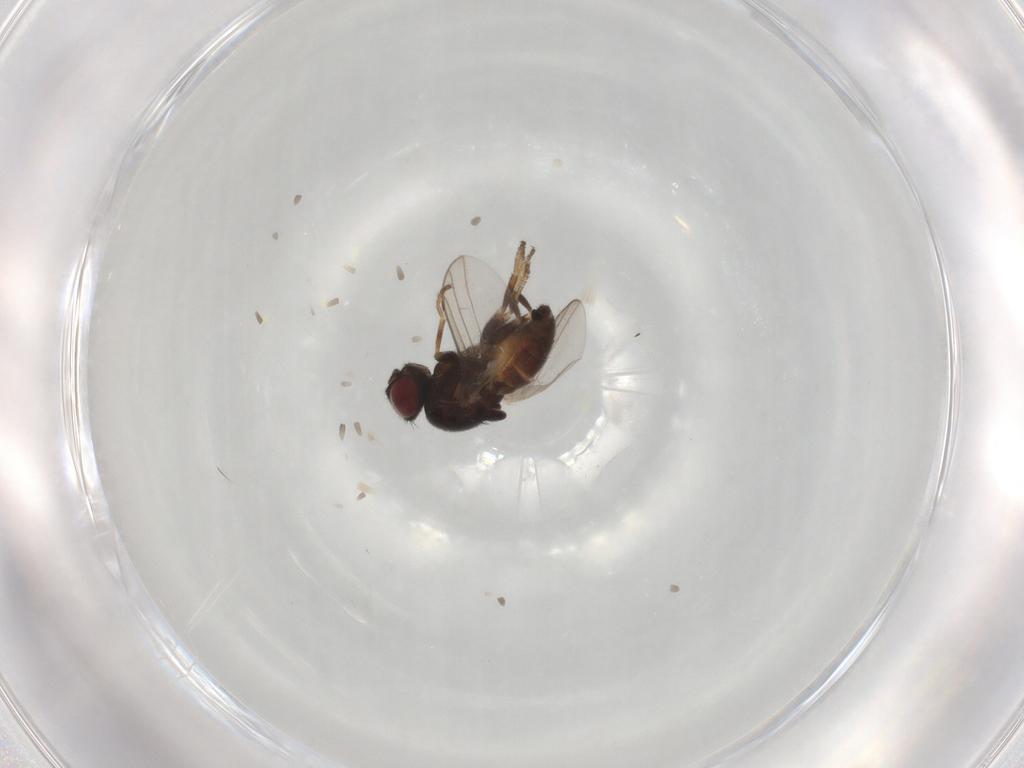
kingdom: Animalia
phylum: Arthropoda
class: Insecta
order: Diptera
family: Chloropidae
